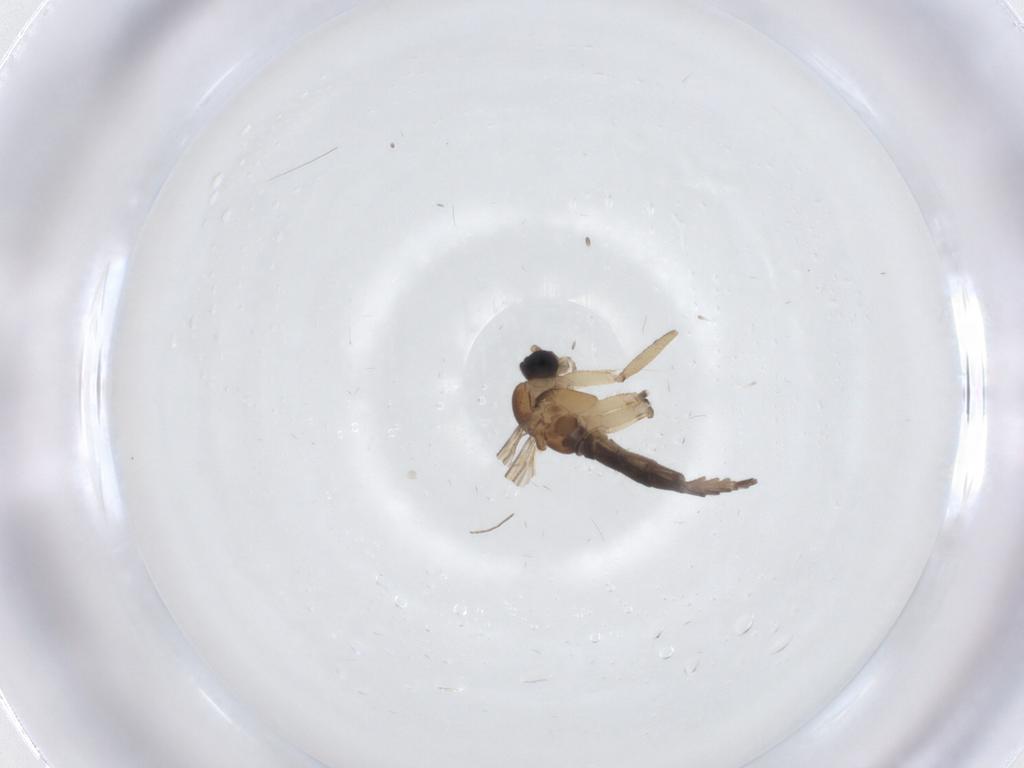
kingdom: Animalia
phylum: Arthropoda
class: Insecta
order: Diptera
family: Sciaridae
